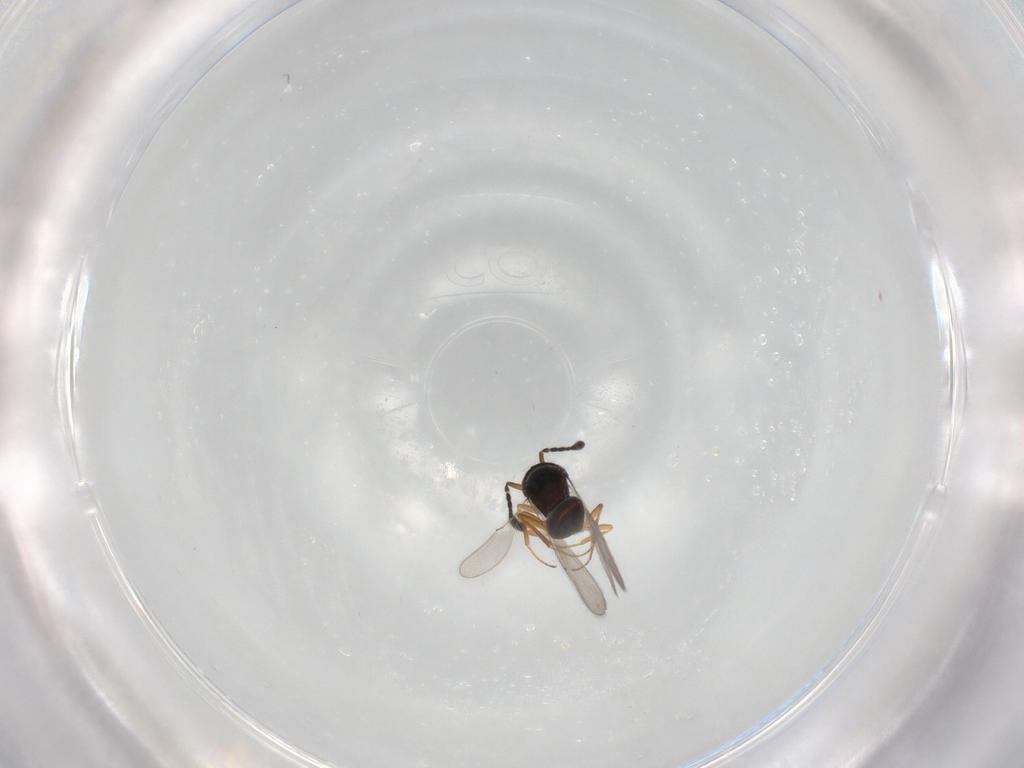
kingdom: Animalia
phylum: Arthropoda
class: Insecta
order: Hymenoptera
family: Scelionidae
